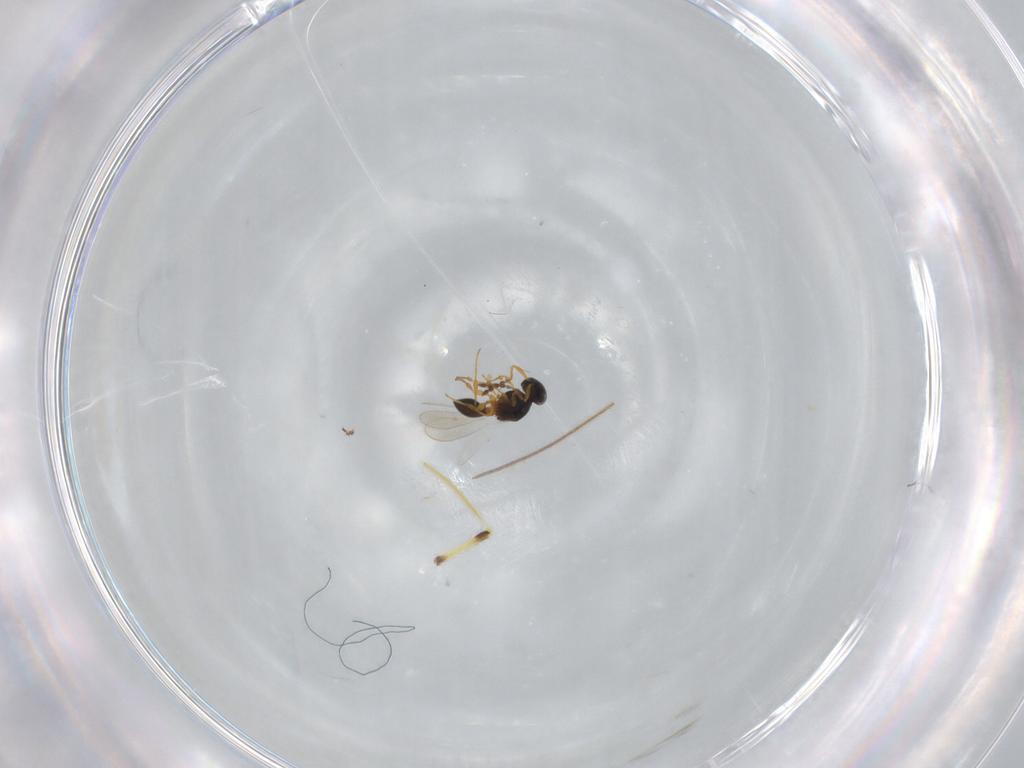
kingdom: Animalia
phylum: Arthropoda
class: Insecta
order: Hymenoptera
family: Platygastridae
